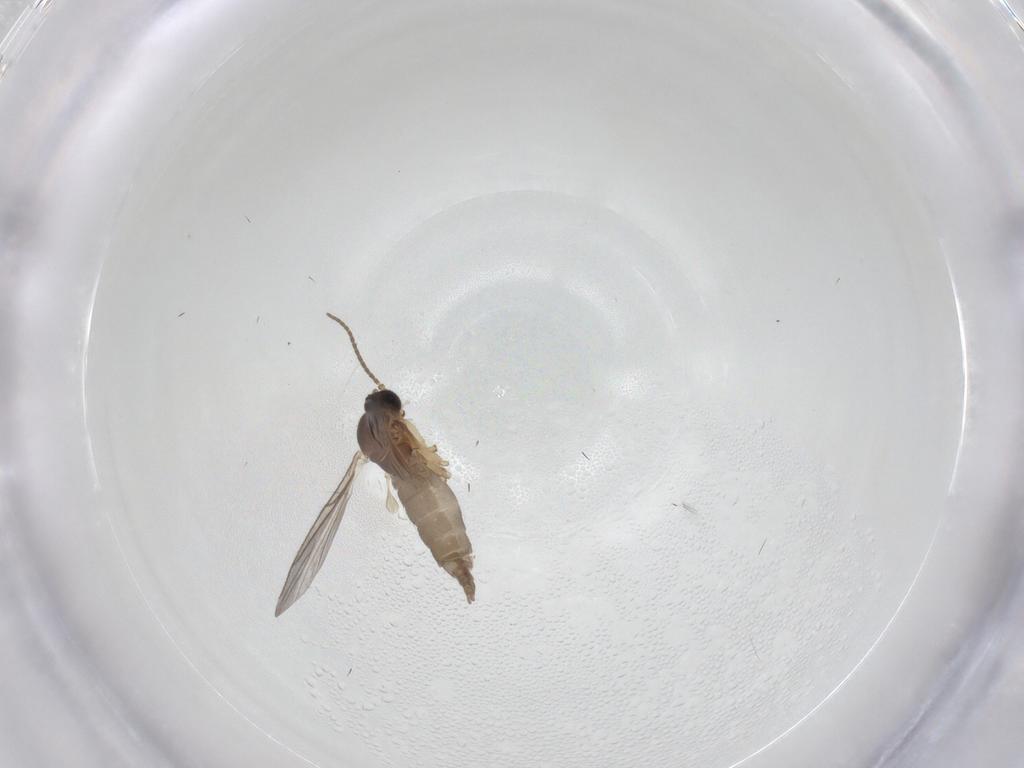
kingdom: Animalia
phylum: Arthropoda
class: Insecta
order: Diptera
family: Sciaridae
